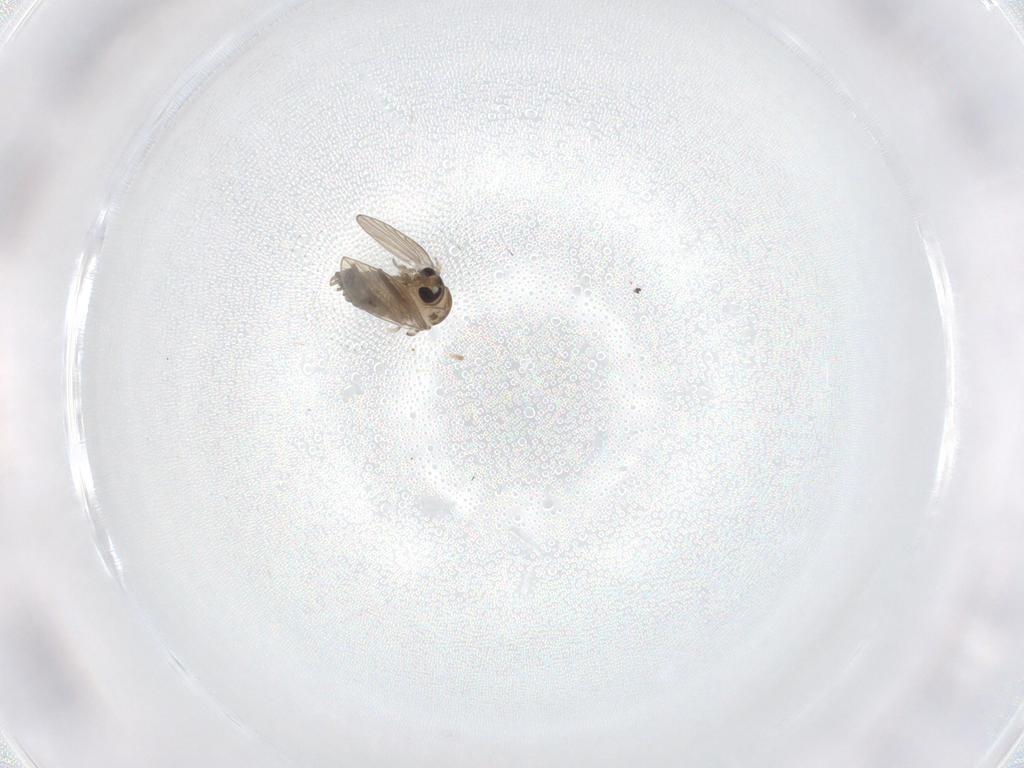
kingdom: Animalia
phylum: Arthropoda
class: Insecta
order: Diptera
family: Psychodidae
